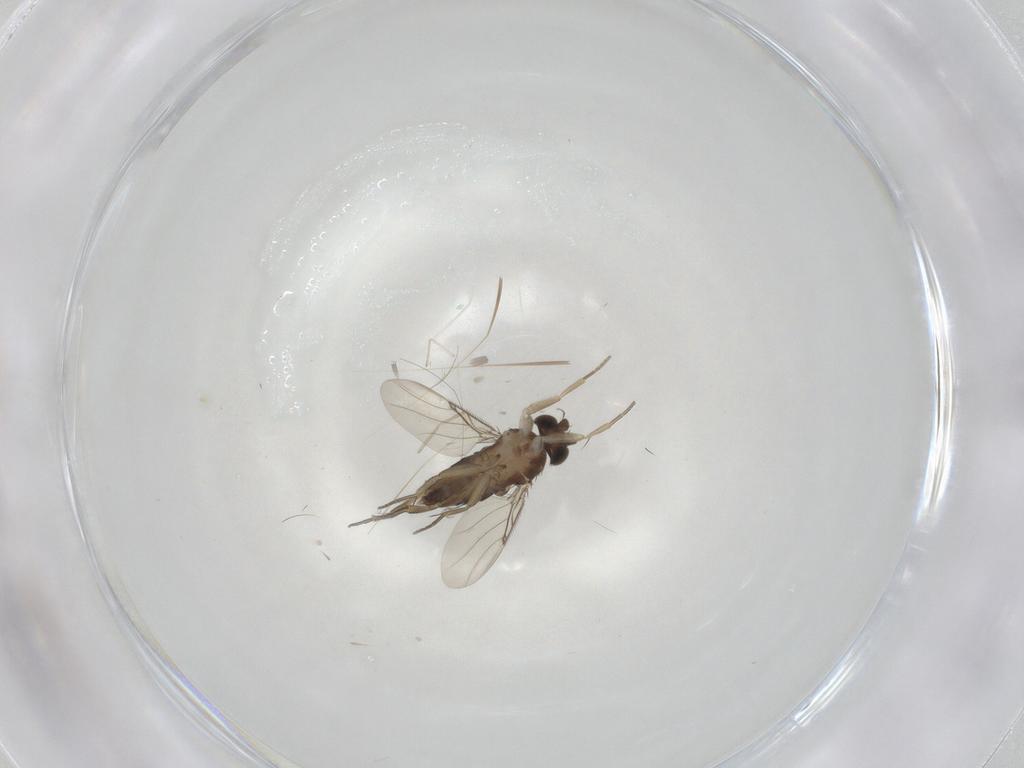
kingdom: Animalia
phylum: Arthropoda
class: Insecta
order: Diptera
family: Phoridae
